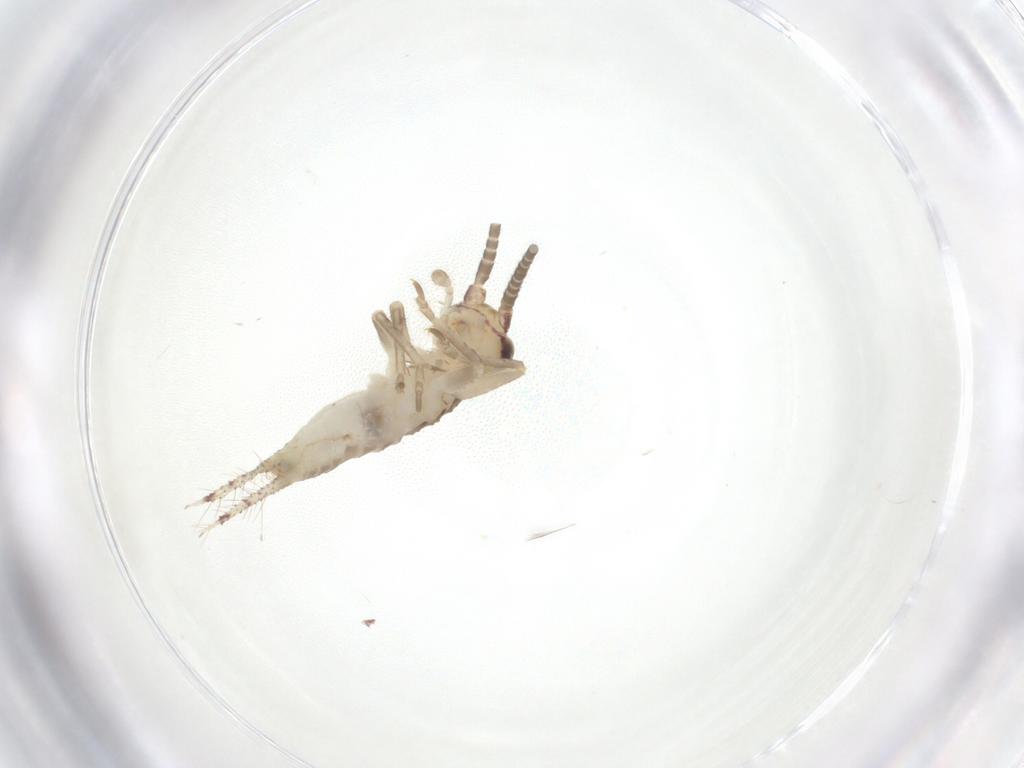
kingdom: Animalia
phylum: Arthropoda
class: Insecta
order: Orthoptera
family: Gryllidae
